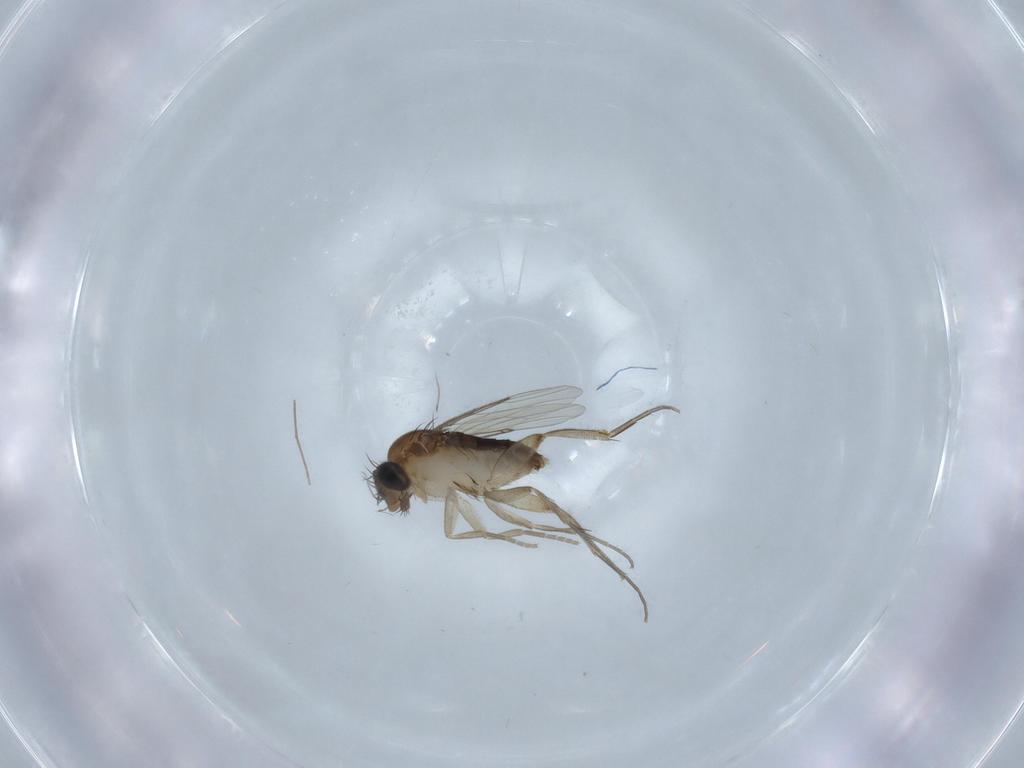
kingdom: Animalia
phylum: Arthropoda
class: Insecta
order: Diptera
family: Phoridae
